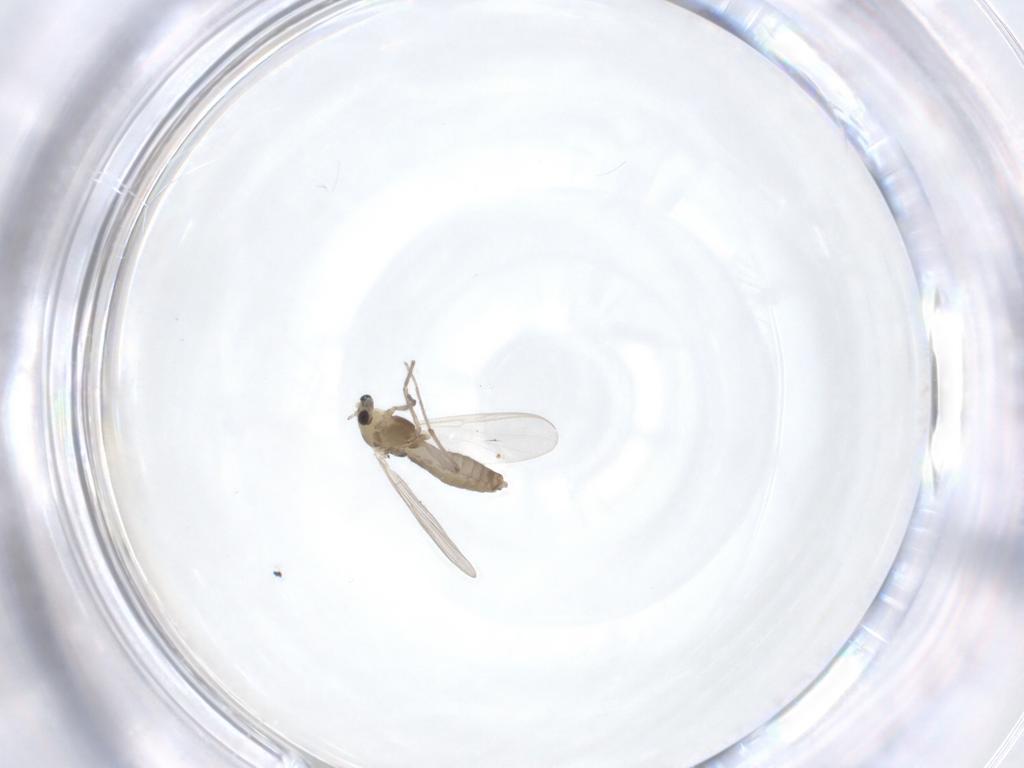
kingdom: Animalia
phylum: Arthropoda
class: Insecta
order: Diptera
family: Chironomidae
